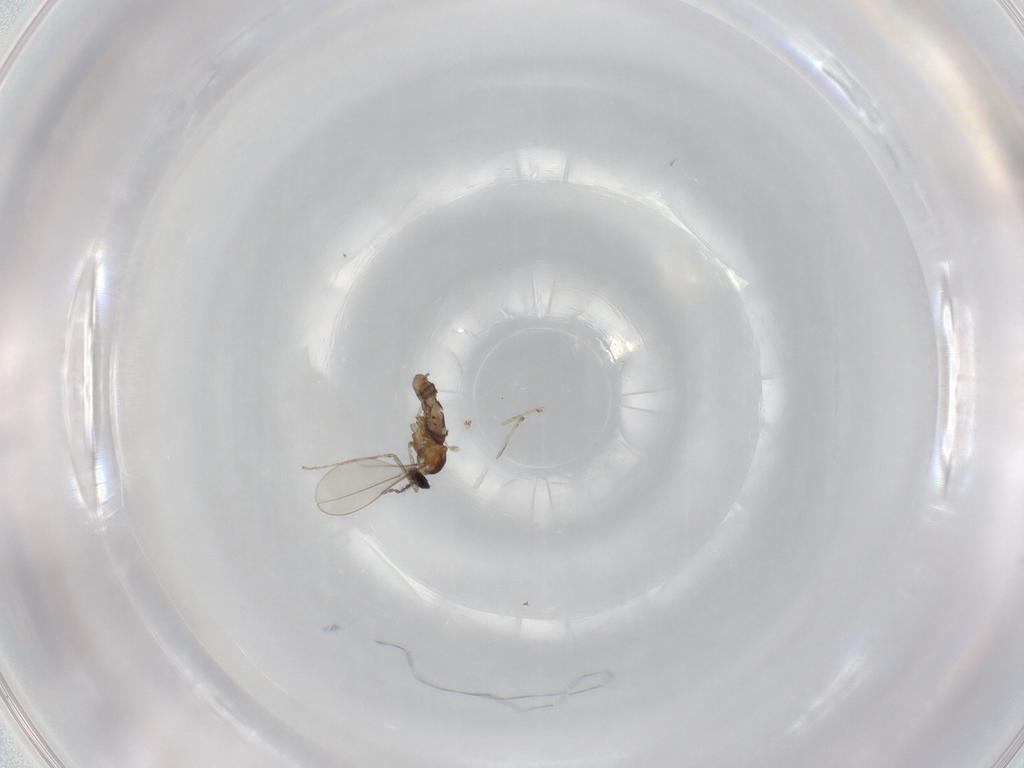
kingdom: Animalia
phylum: Arthropoda
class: Insecta
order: Diptera
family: Cecidomyiidae
